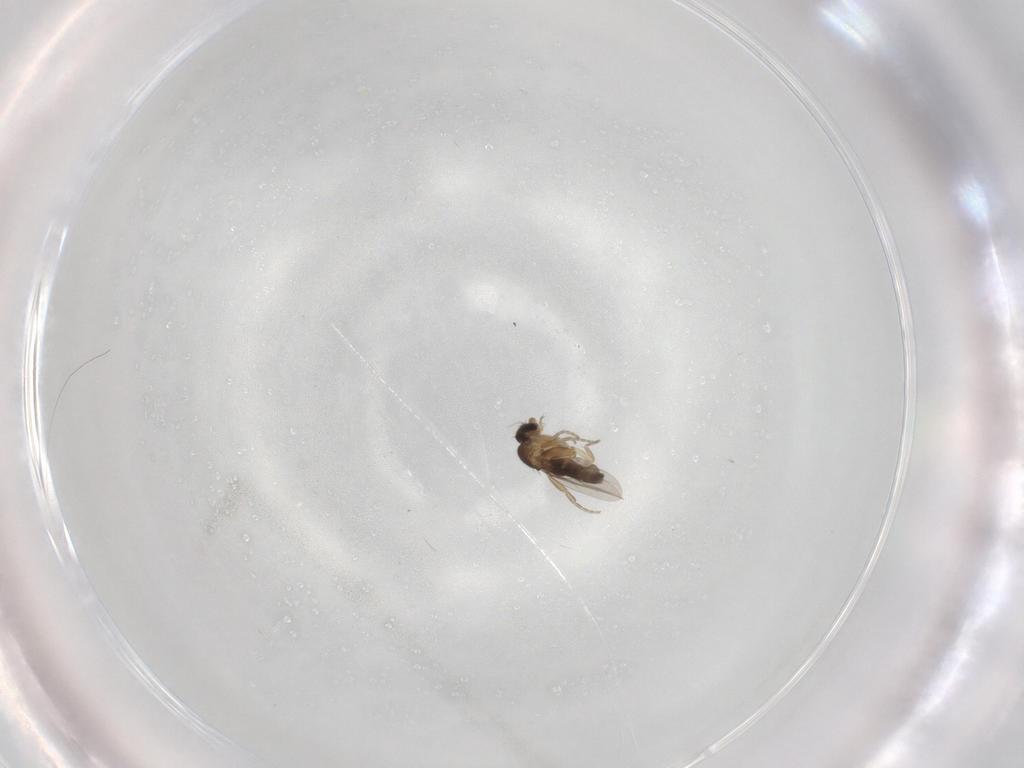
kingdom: Animalia
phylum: Arthropoda
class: Insecta
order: Diptera
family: Phoridae
